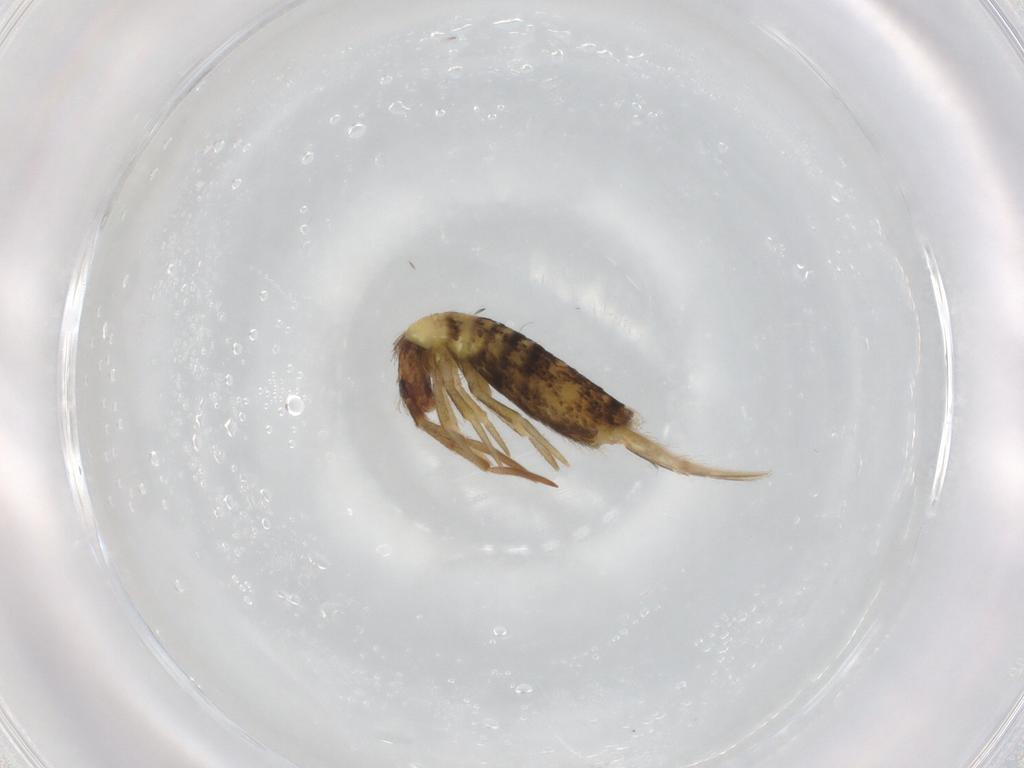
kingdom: Animalia
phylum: Arthropoda
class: Collembola
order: Entomobryomorpha
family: Entomobryidae
